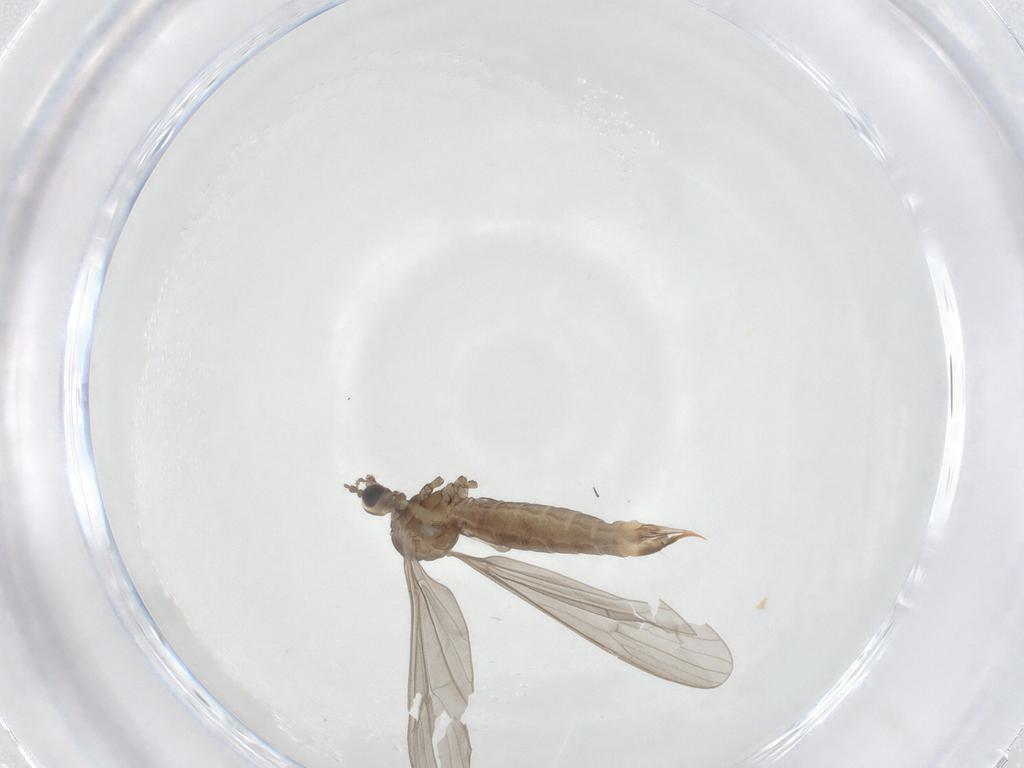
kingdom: Animalia
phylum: Arthropoda
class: Insecta
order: Diptera
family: Limoniidae
